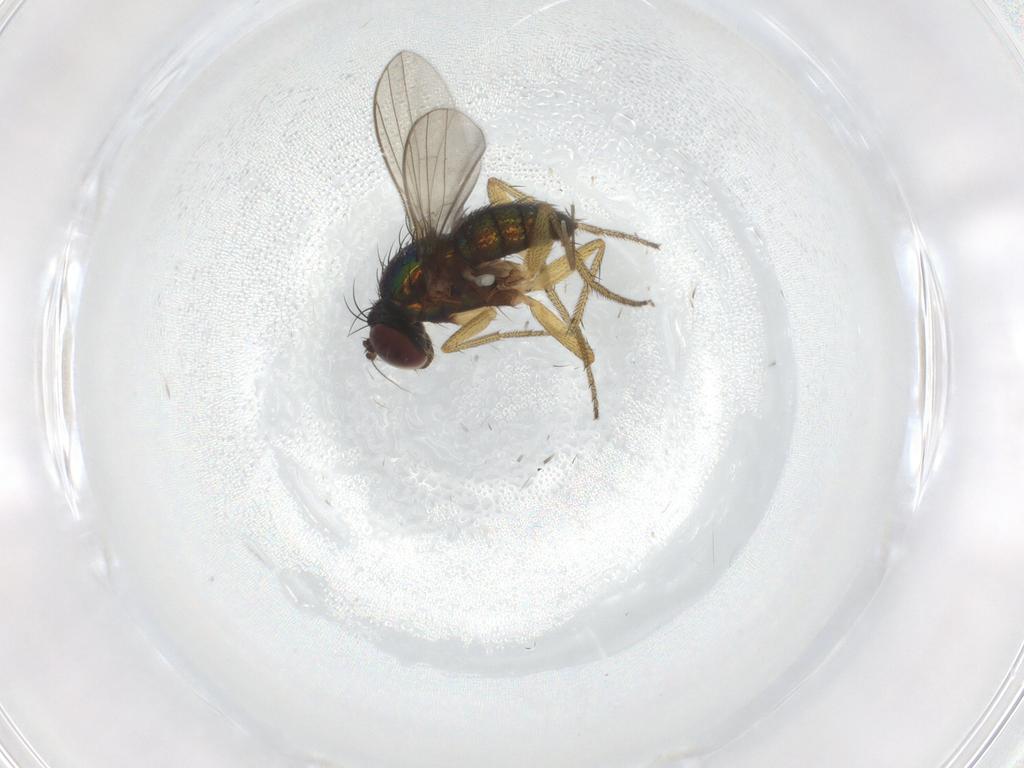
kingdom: Animalia
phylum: Arthropoda
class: Insecta
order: Diptera
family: Dolichopodidae
